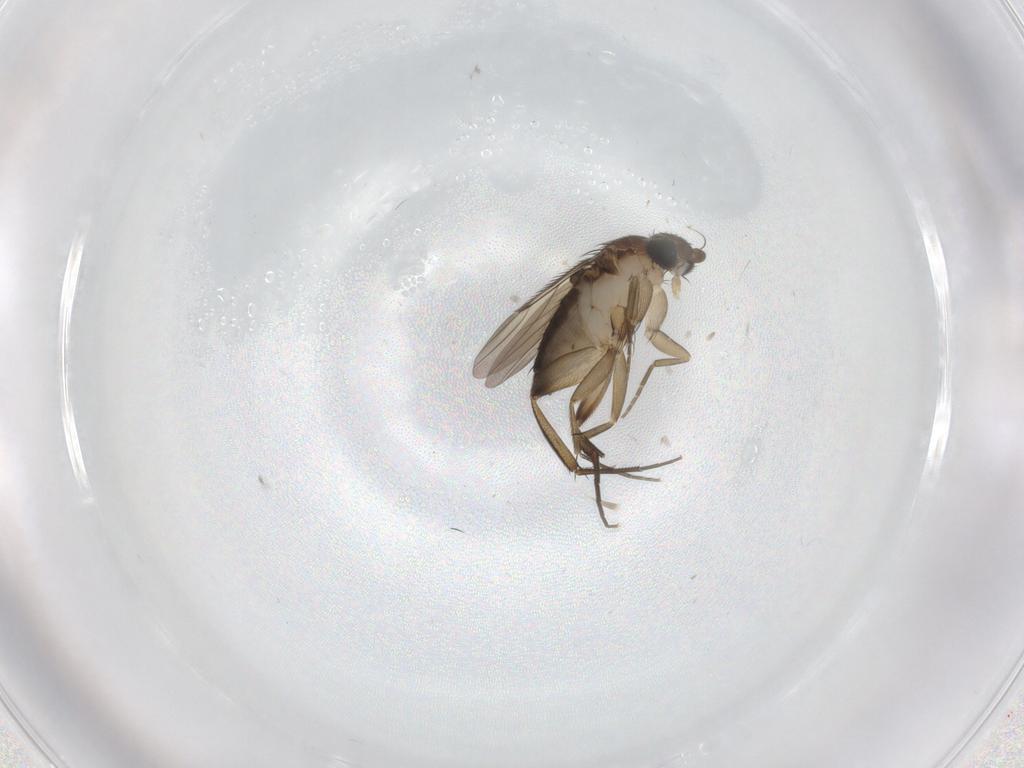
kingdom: Animalia
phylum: Arthropoda
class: Insecta
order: Diptera
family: Phoridae
